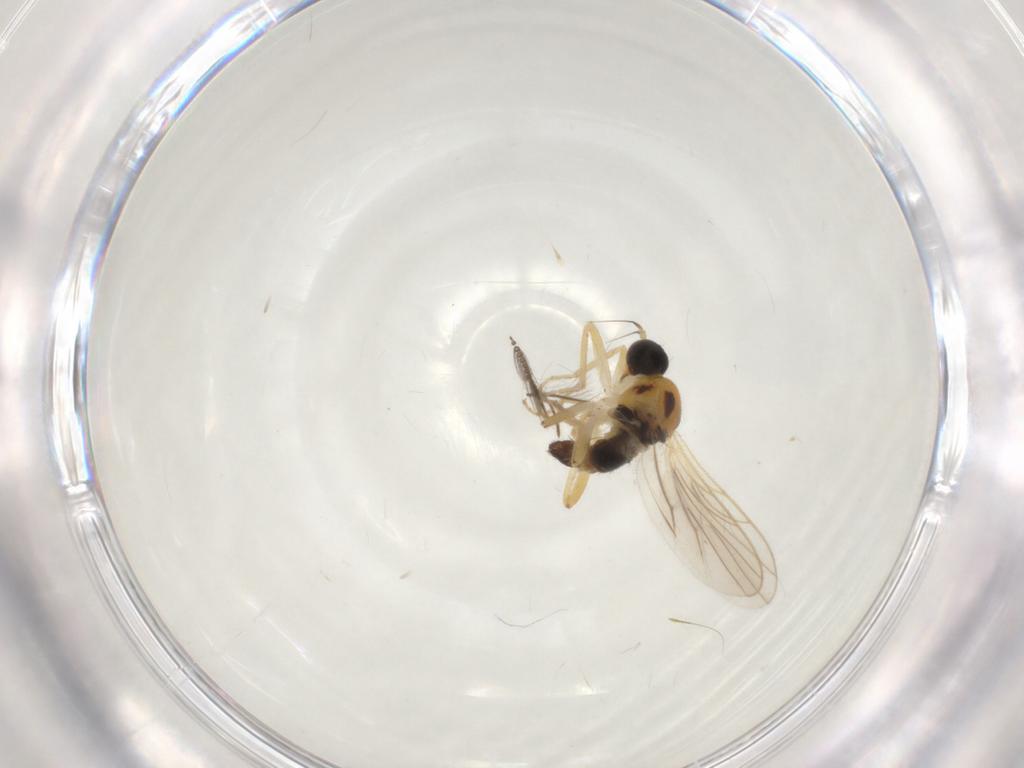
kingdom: Animalia
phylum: Arthropoda
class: Insecta
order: Diptera
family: Hybotidae
